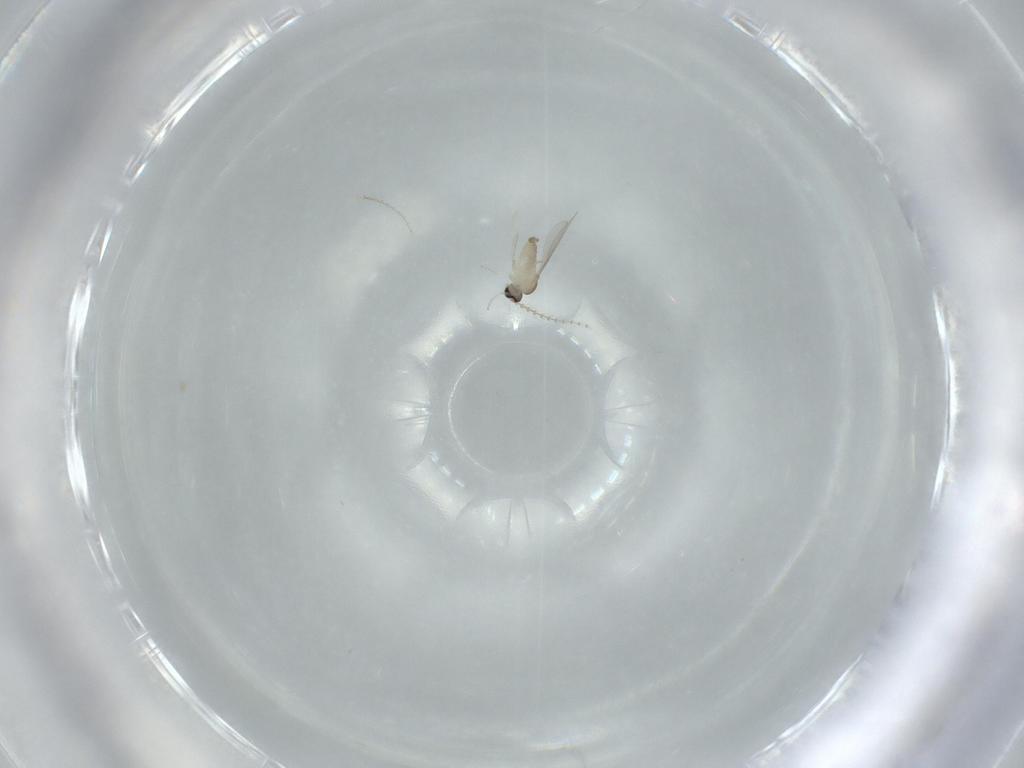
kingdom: Animalia
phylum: Arthropoda
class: Insecta
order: Diptera
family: Cecidomyiidae
